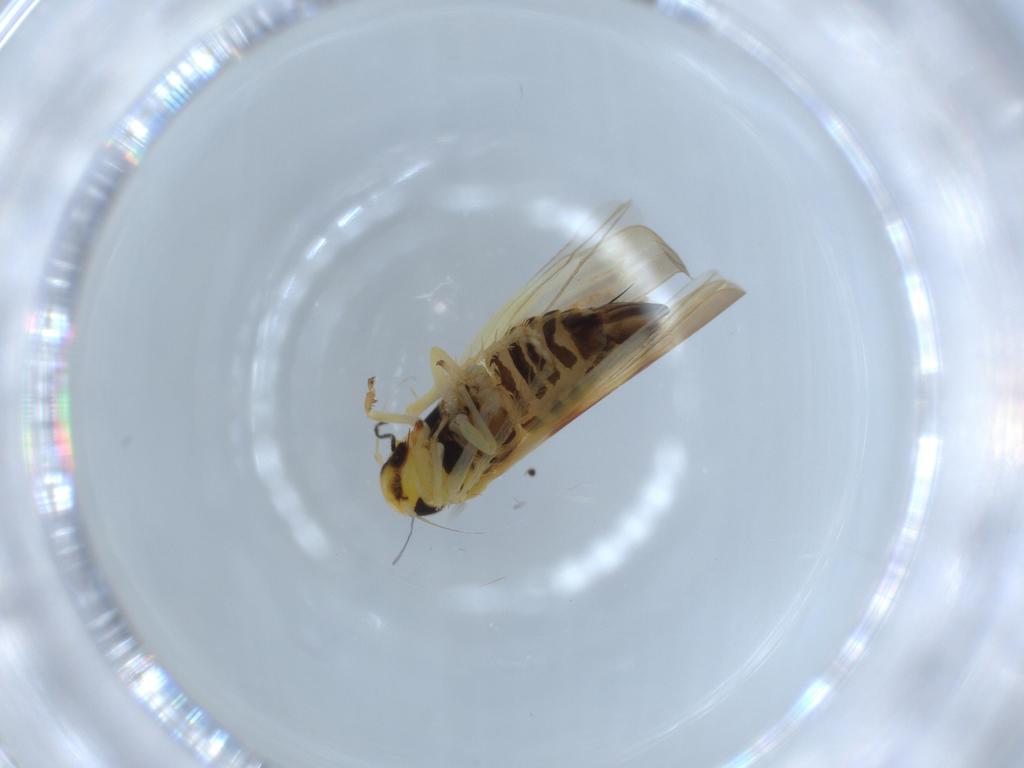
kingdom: Animalia
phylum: Arthropoda
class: Insecta
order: Hemiptera
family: Cicadellidae
